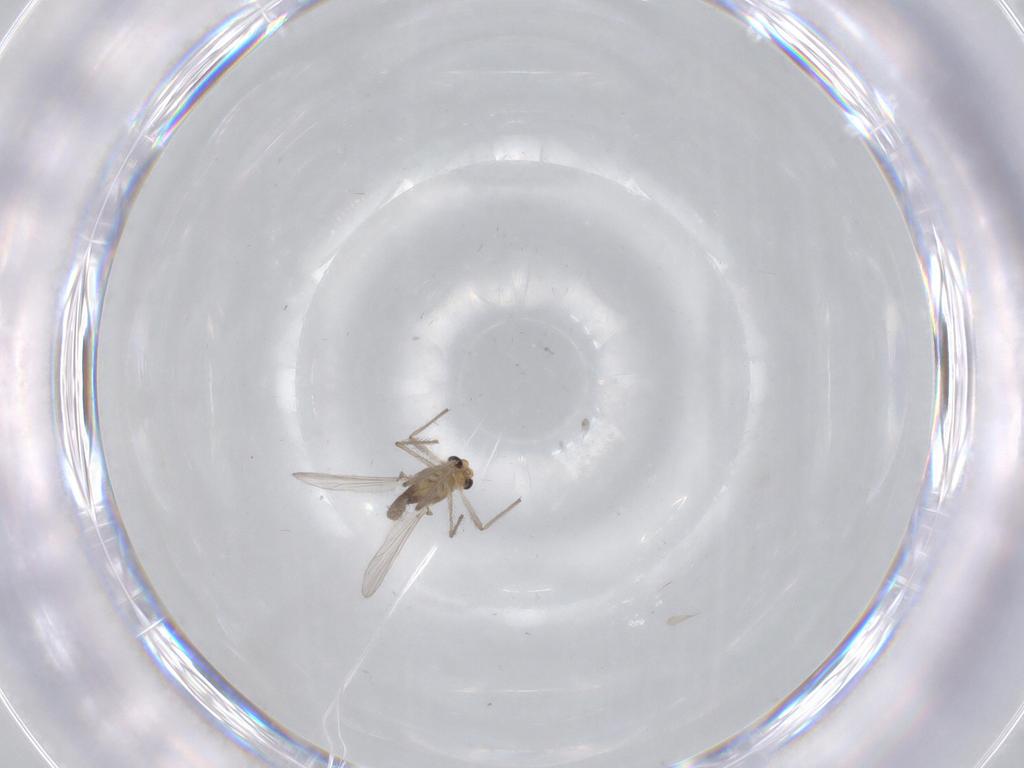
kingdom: Animalia
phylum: Arthropoda
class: Insecta
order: Diptera
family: Chironomidae
